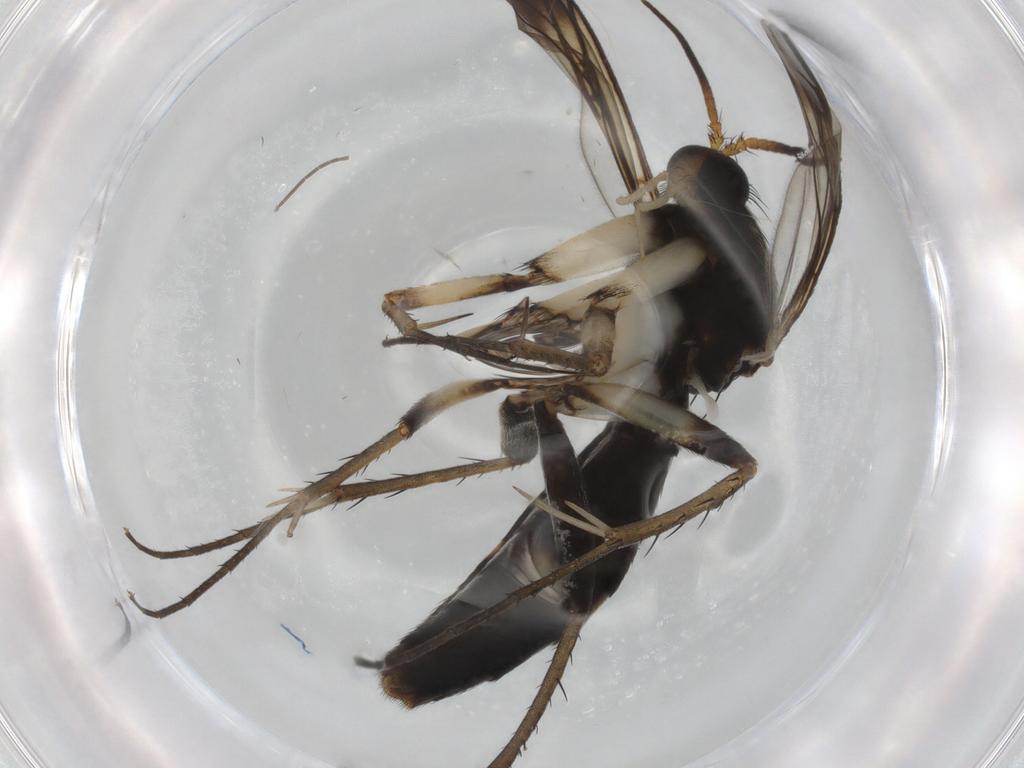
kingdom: Animalia
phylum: Arthropoda
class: Insecta
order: Diptera
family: Mycetophilidae
